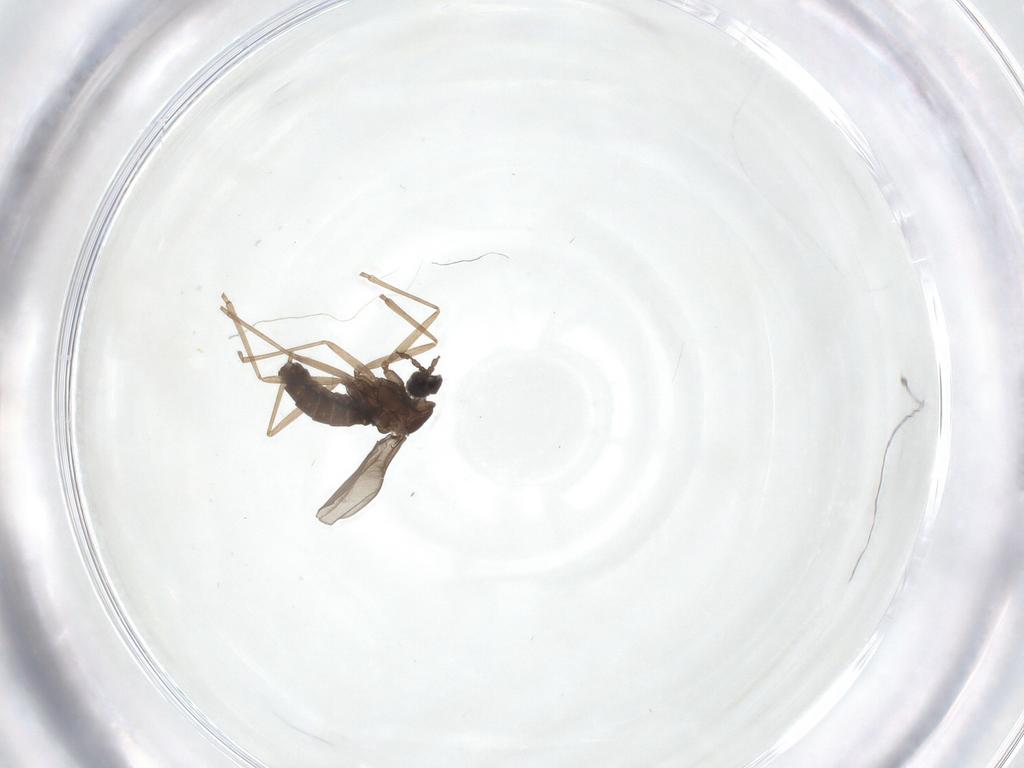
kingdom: Animalia
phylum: Arthropoda
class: Insecta
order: Diptera
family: Cecidomyiidae
